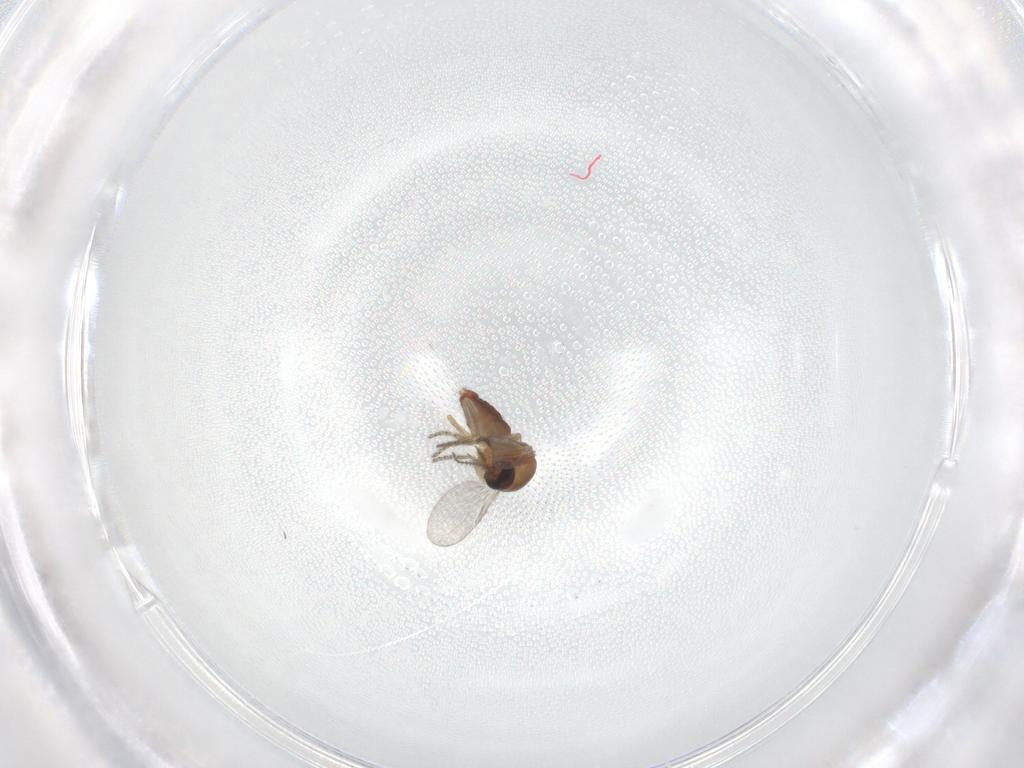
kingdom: Animalia
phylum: Arthropoda
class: Insecta
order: Diptera
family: Ceratopogonidae
